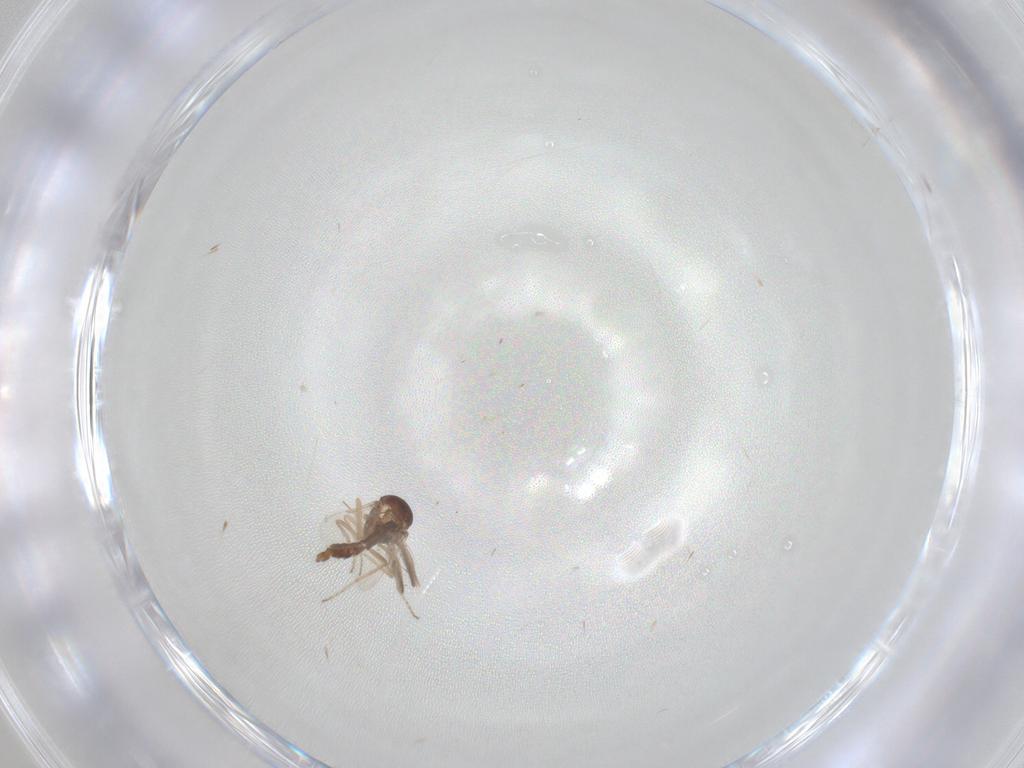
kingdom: Animalia
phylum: Arthropoda
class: Insecta
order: Diptera
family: Ceratopogonidae
